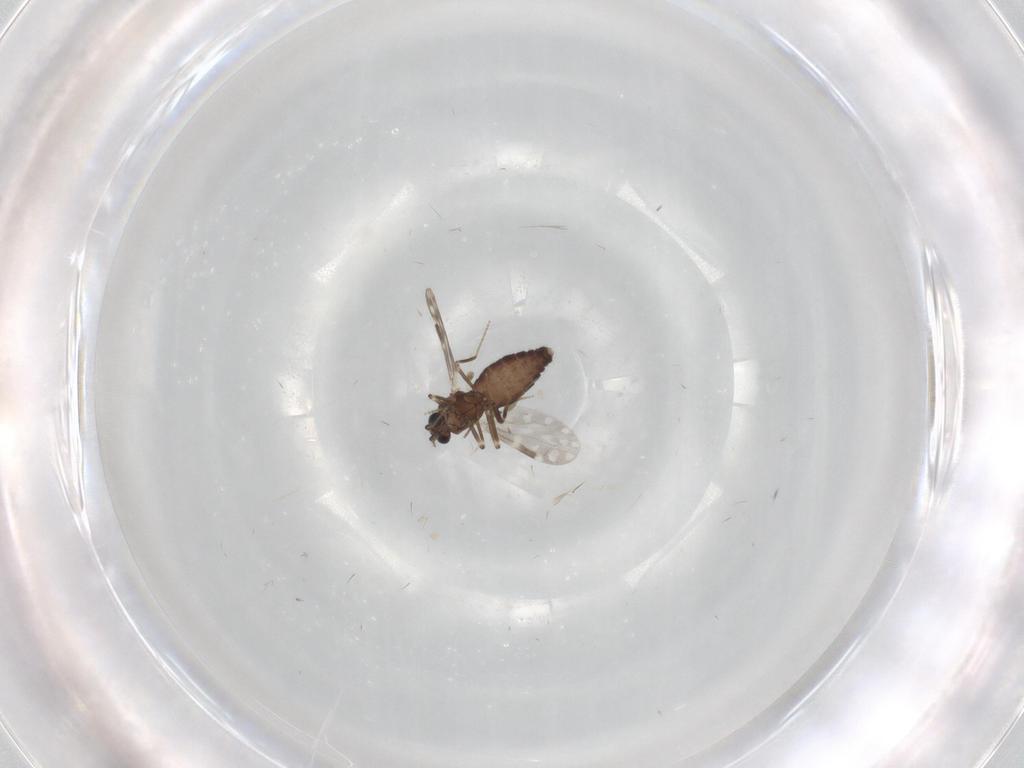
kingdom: Animalia
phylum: Arthropoda
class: Insecta
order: Diptera
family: Ceratopogonidae
